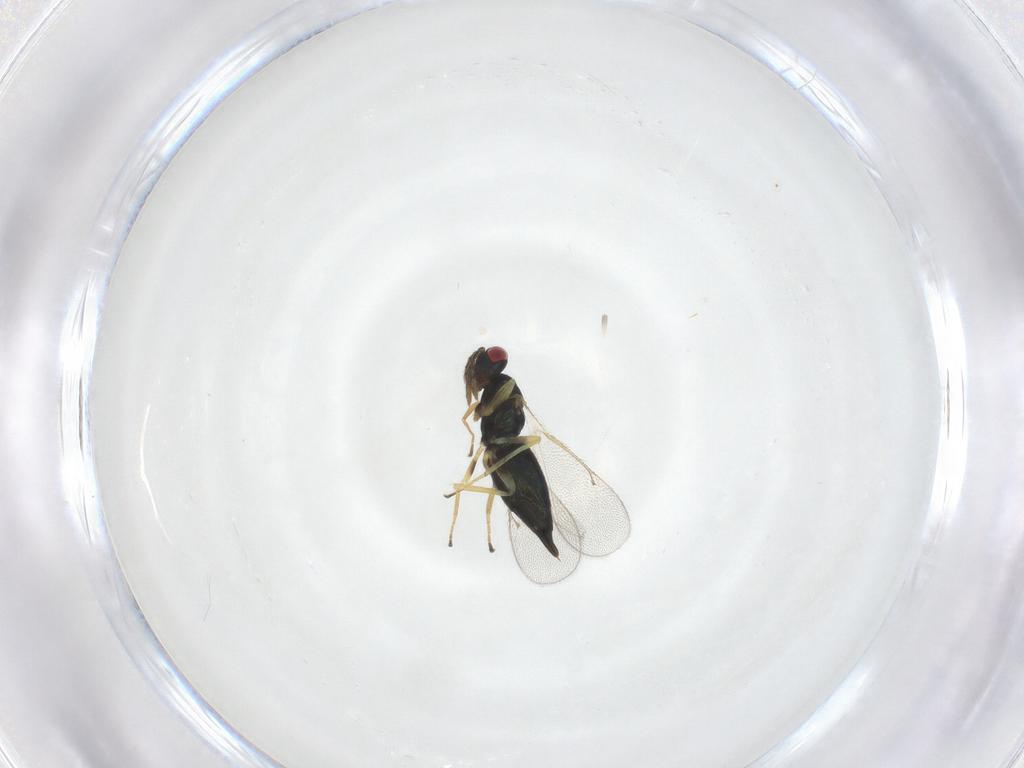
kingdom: Animalia
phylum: Arthropoda
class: Insecta
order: Hymenoptera
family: Eulophidae
